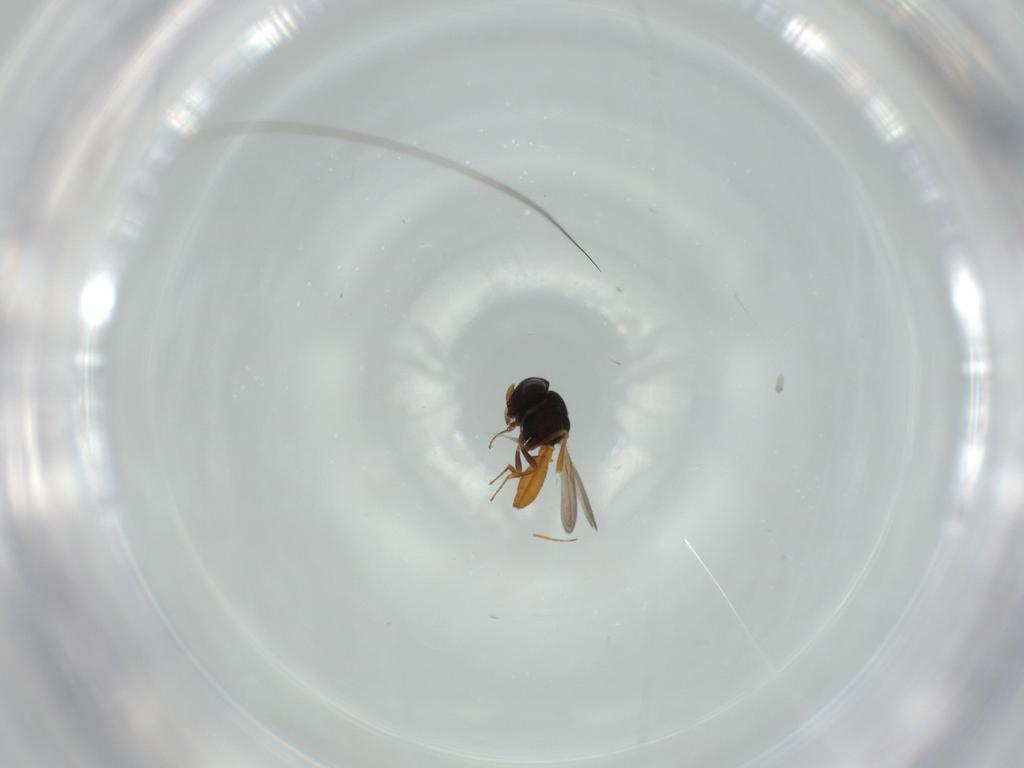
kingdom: Animalia
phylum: Arthropoda
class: Insecta
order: Hymenoptera
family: Scelionidae
